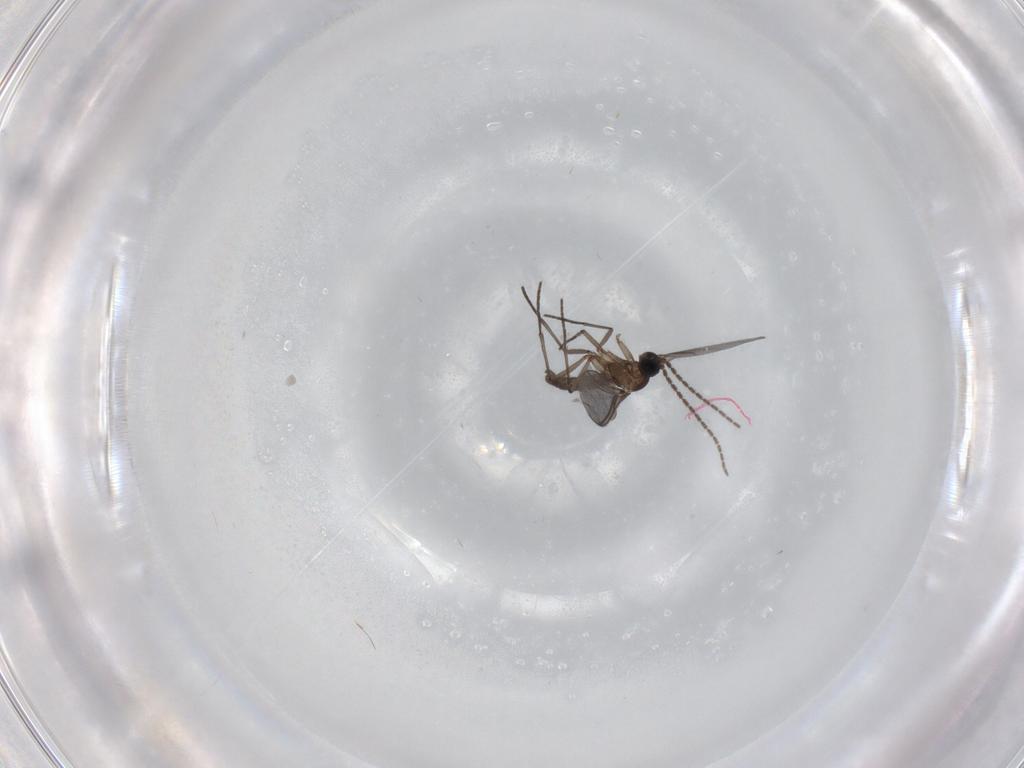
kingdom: Animalia
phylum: Arthropoda
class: Insecta
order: Diptera
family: Sciaridae
